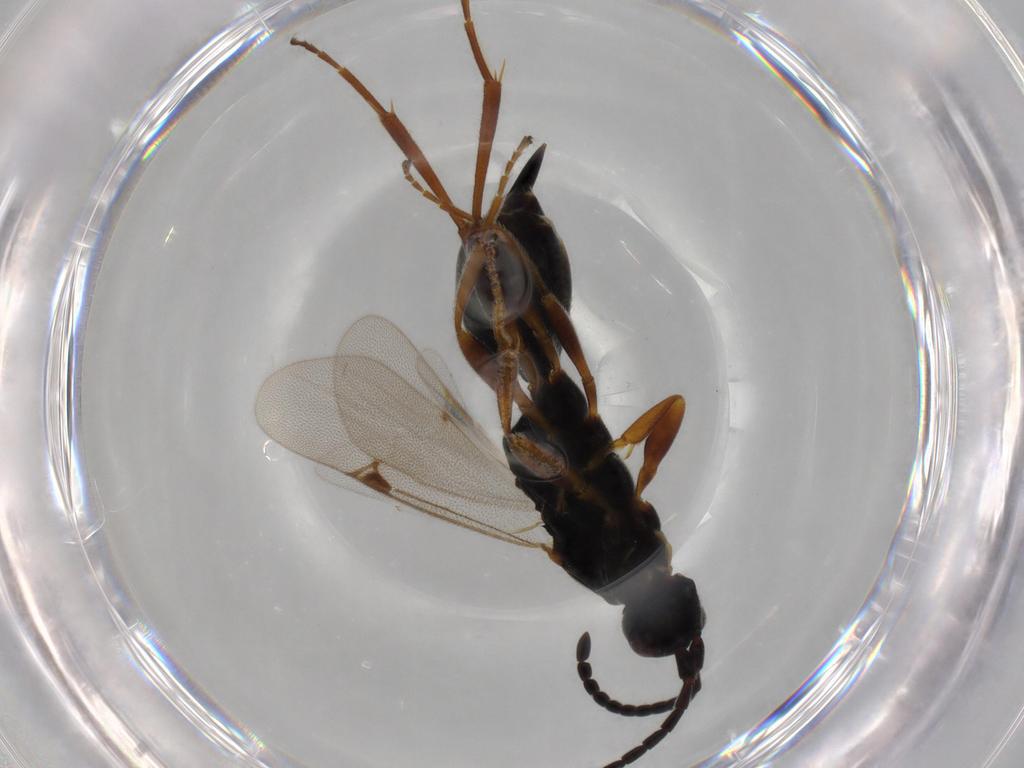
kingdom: Animalia
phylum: Arthropoda
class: Insecta
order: Hymenoptera
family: Proctotrupidae
